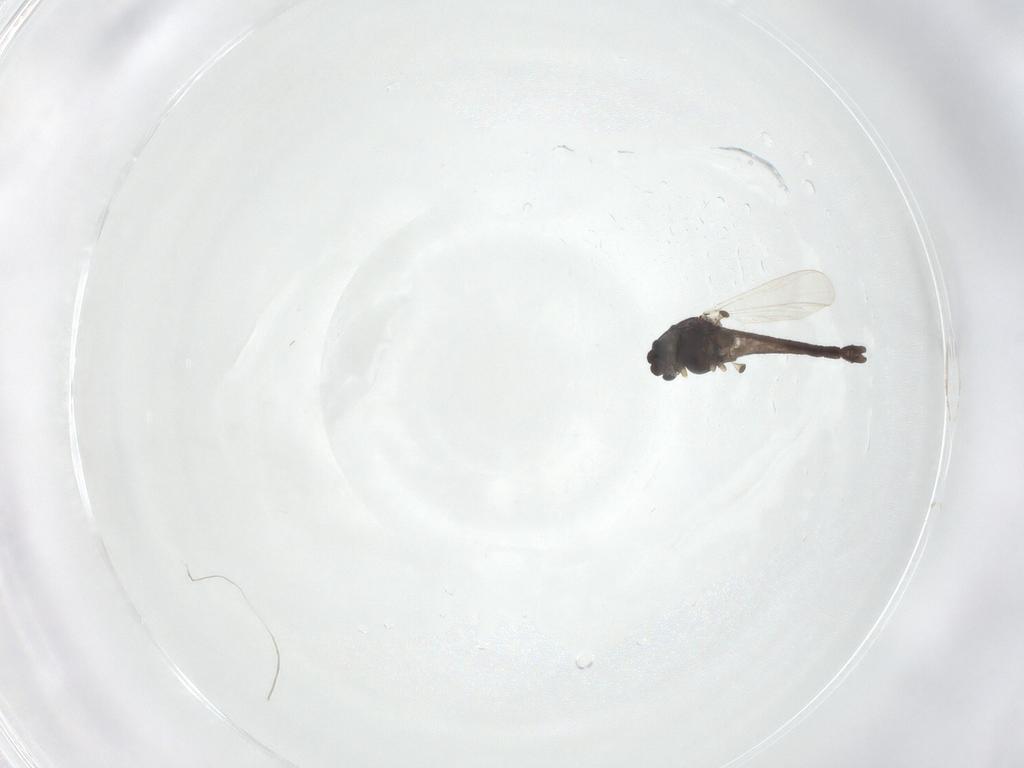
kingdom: Animalia
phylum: Arthropoda
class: Insecta
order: Diptera
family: Chironomidae
